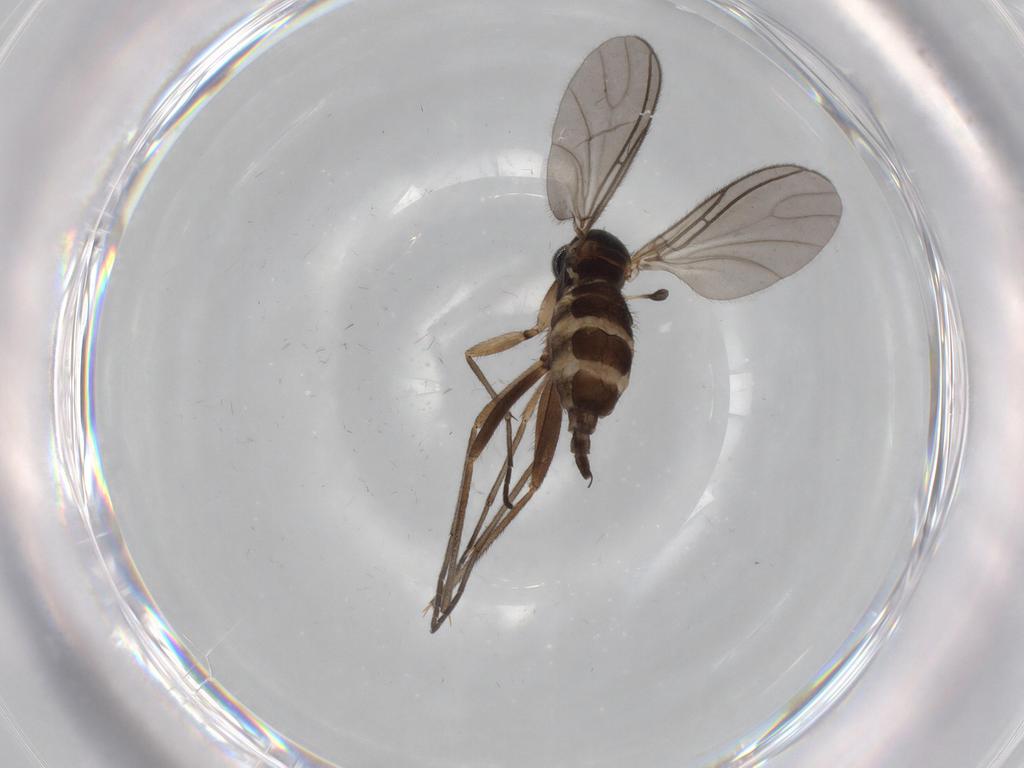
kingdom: Animalia
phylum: Arthropoda
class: Insecta
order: Diptera
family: Sciaridae
